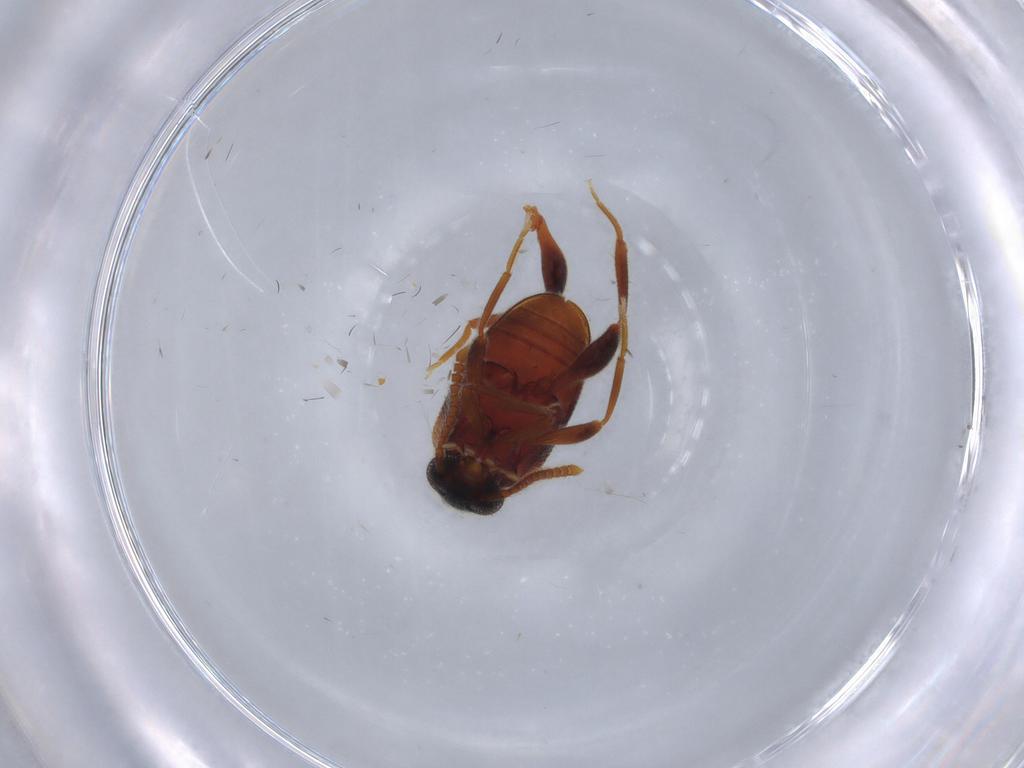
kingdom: Animalia
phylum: Arthropoda
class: Insecta
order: Coleoptera
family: Aderidae
